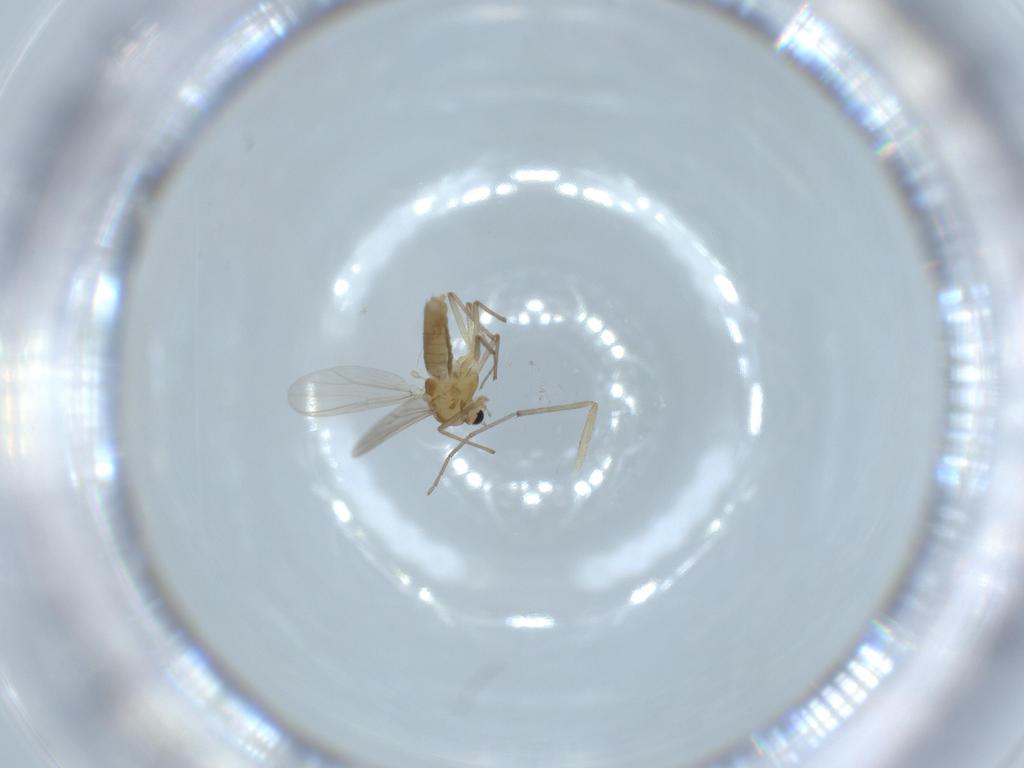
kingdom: Animalia
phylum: Arthropoda
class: Insecta
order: Diptera
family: Chironomidae
